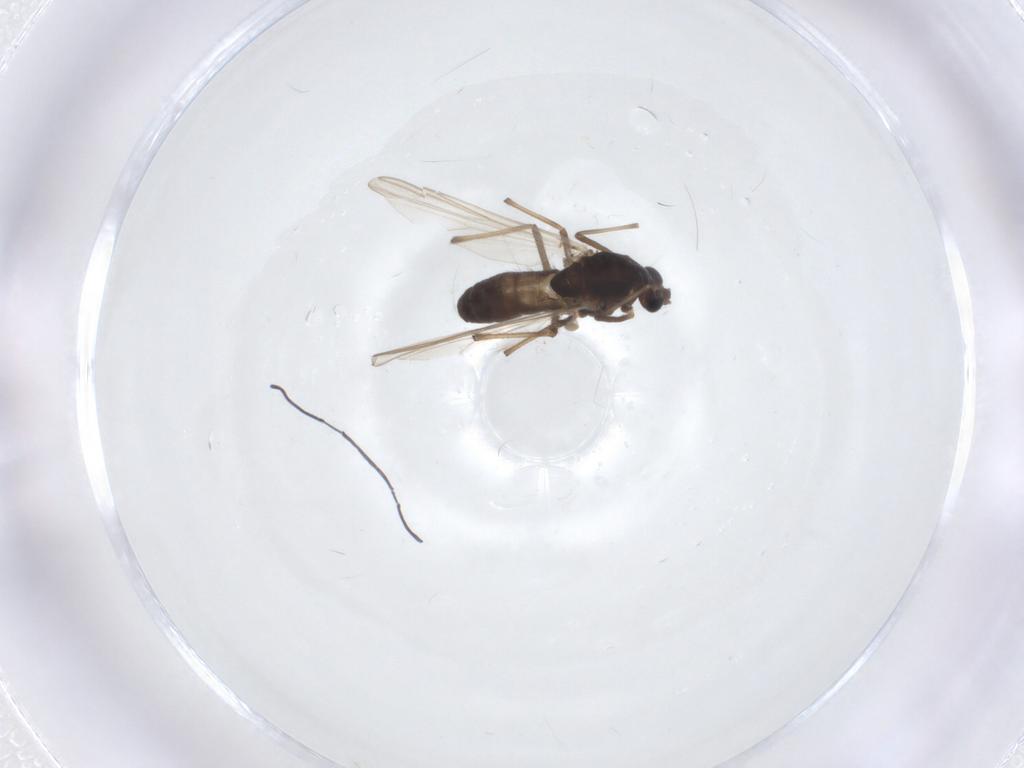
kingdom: Animalia
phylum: Arthropoda
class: Insecta
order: Diptera
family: Chironomidae
